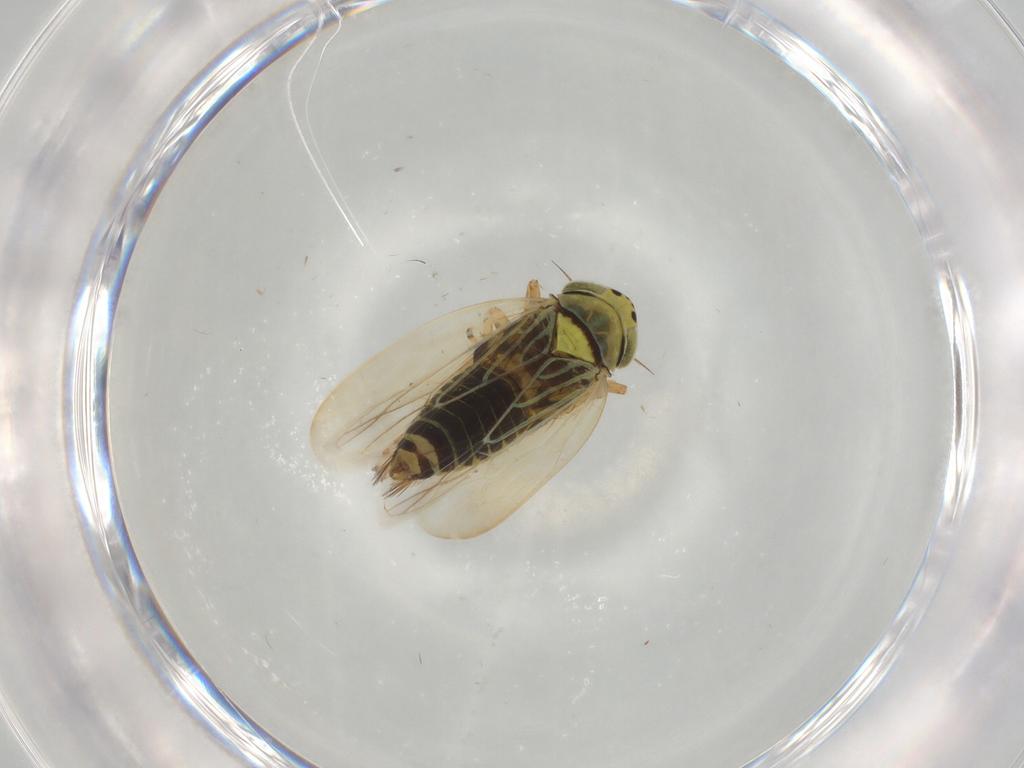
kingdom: Animalia
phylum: Arthropoda
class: Insecta
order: Hemiptera
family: Cicadellidae
